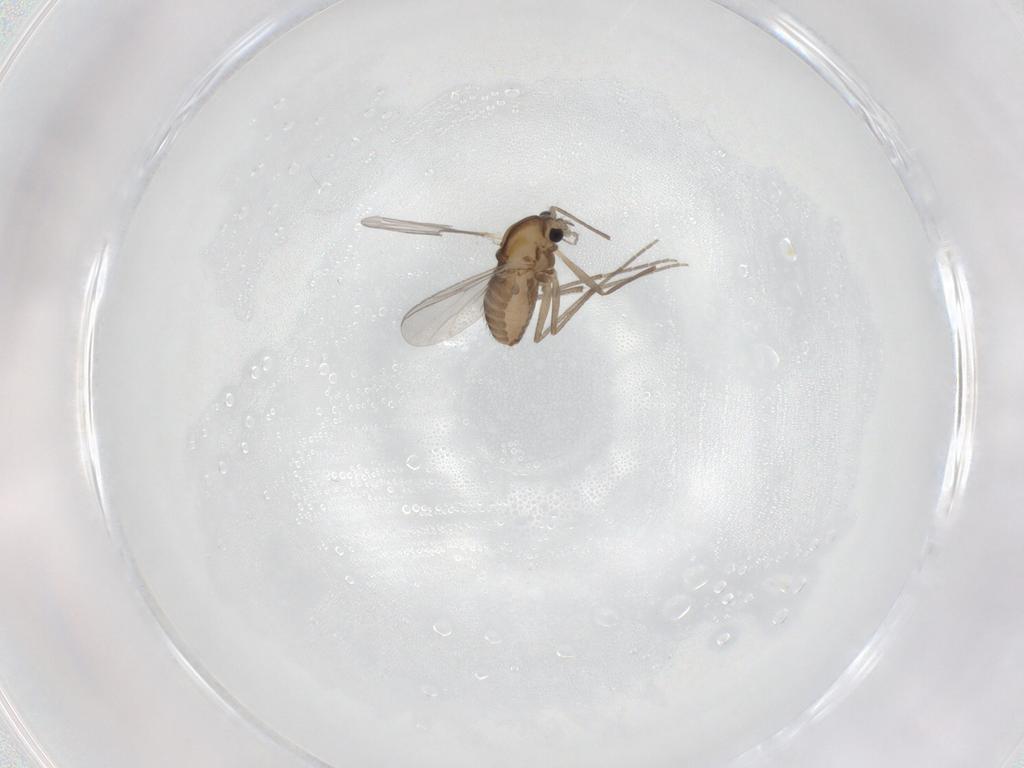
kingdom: Animalia
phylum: Arthropoda
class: Insecta
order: Diptera
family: Chironomidae
